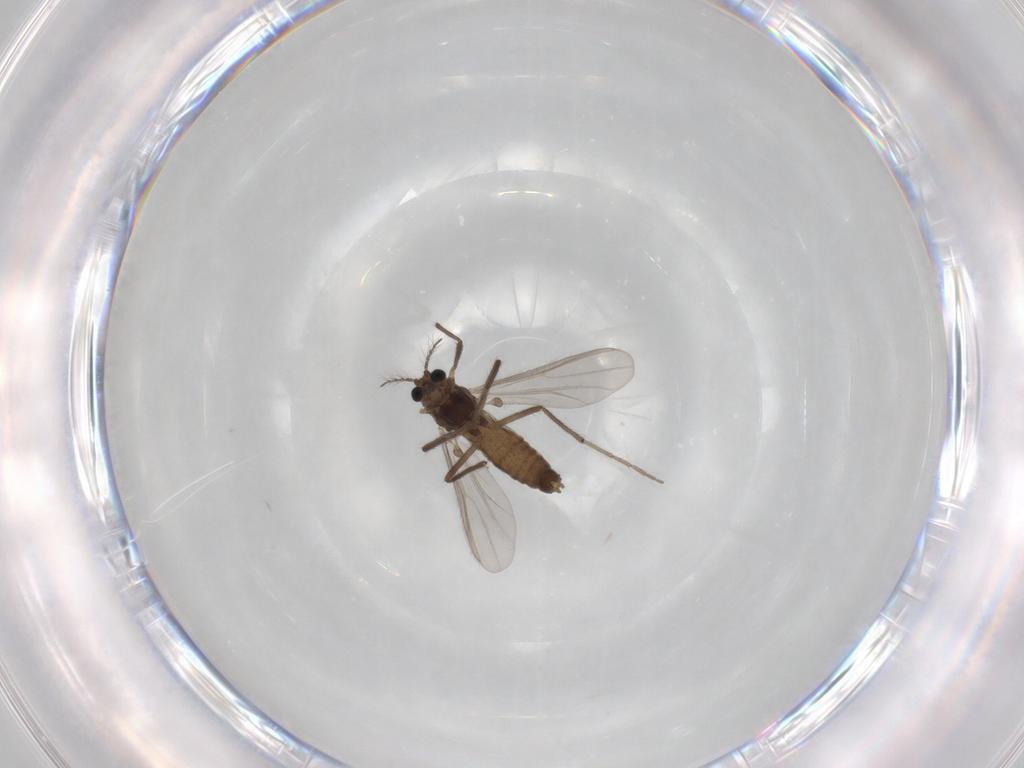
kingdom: Animalia
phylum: Arthropoda
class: Insecta
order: Diptera
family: Chironomidae
